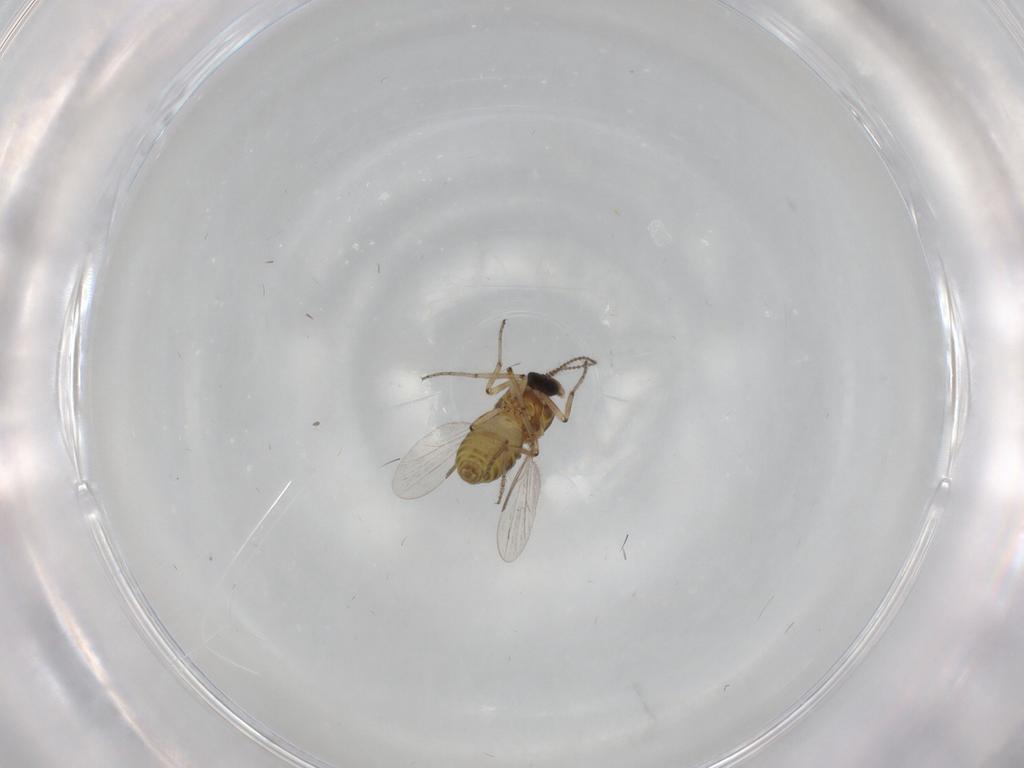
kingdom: Animalia
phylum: Arthropoda
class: Insecta
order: Diptera
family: Ceratopogonidae
